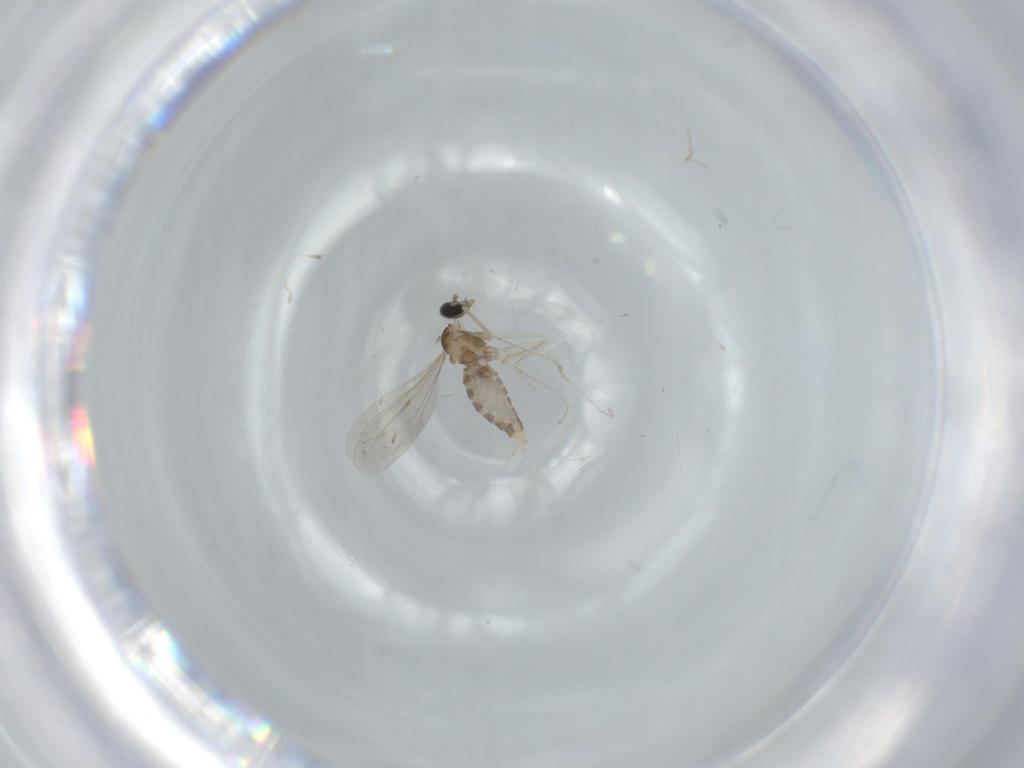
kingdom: Animalia
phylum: Arthropoda
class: Insecta
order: Diptera
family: Cecidomyiidae
